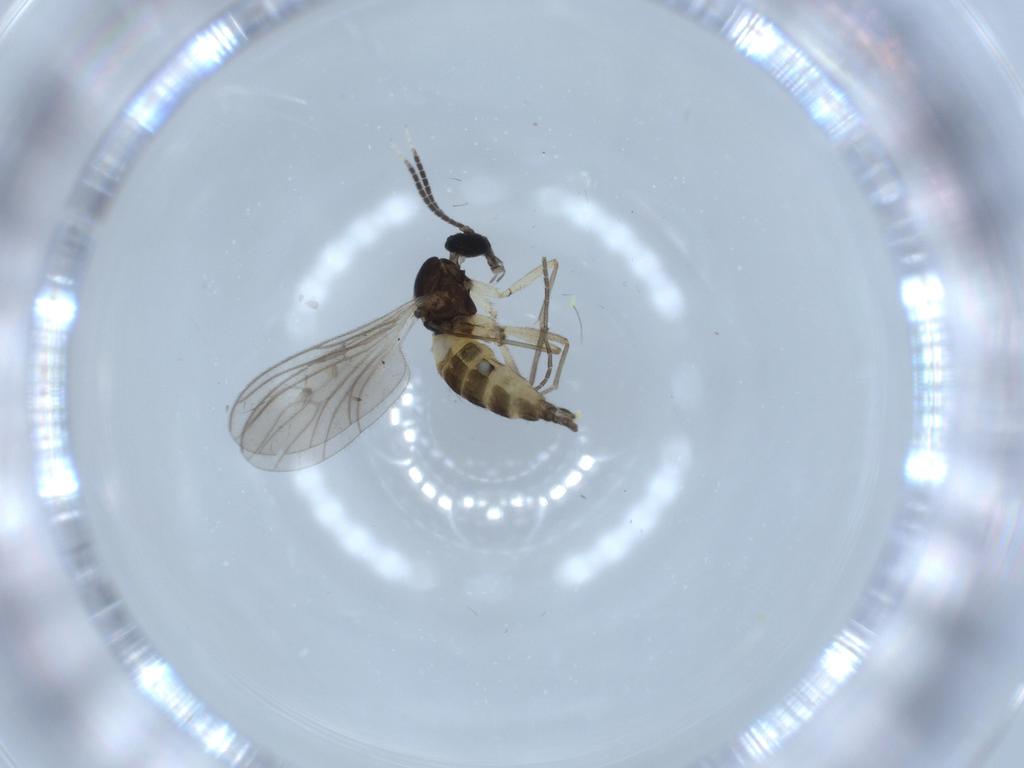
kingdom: Animalia
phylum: Arthropoda
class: Insecta
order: Diptera
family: Sciaridae
